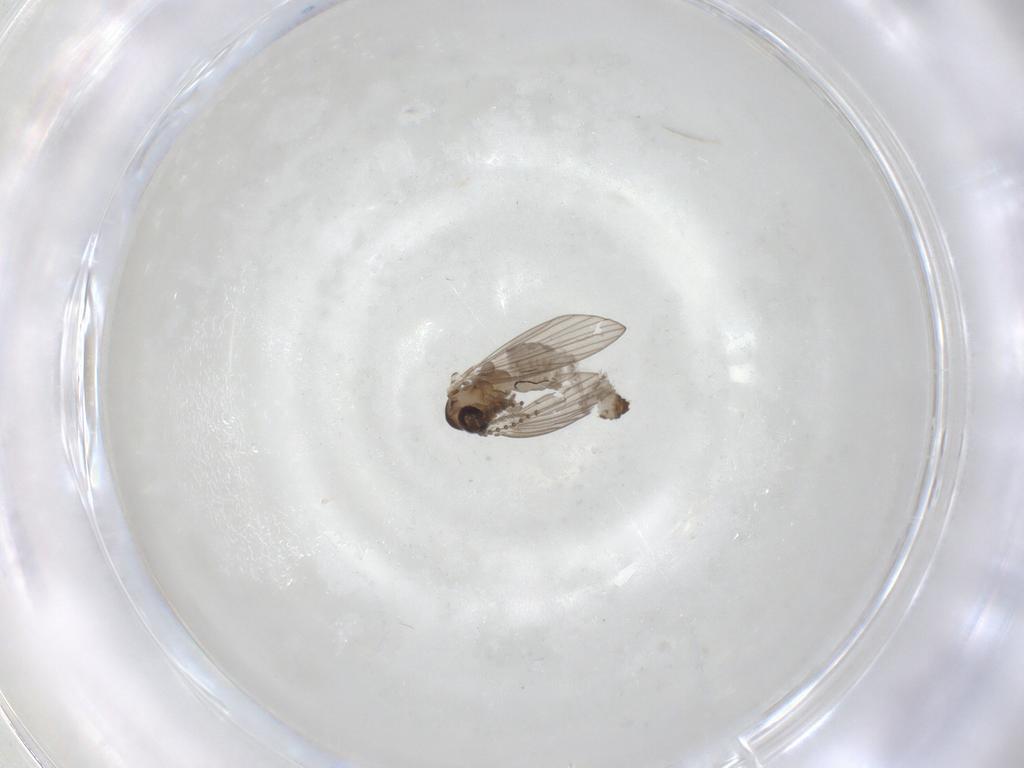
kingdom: Animalia
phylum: Arthropoda
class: Insecta
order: Diptera
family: Psychodidae
